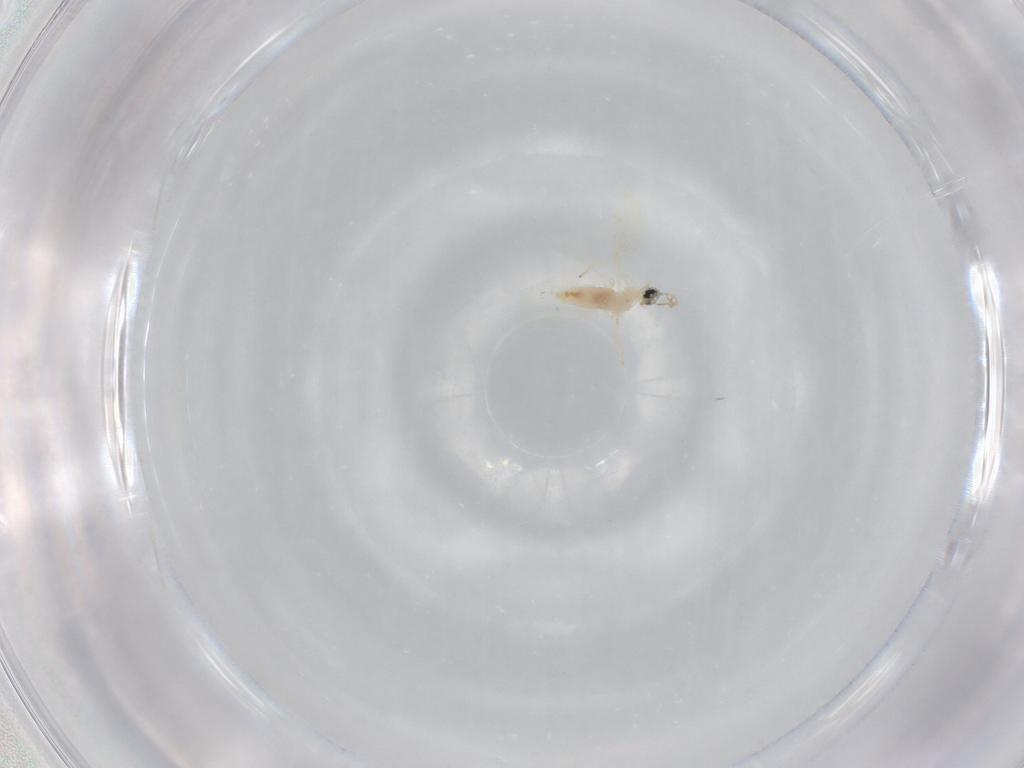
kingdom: Animalia
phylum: Arthropoda
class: Insecta
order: Diptera
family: Cecidomyiidae
